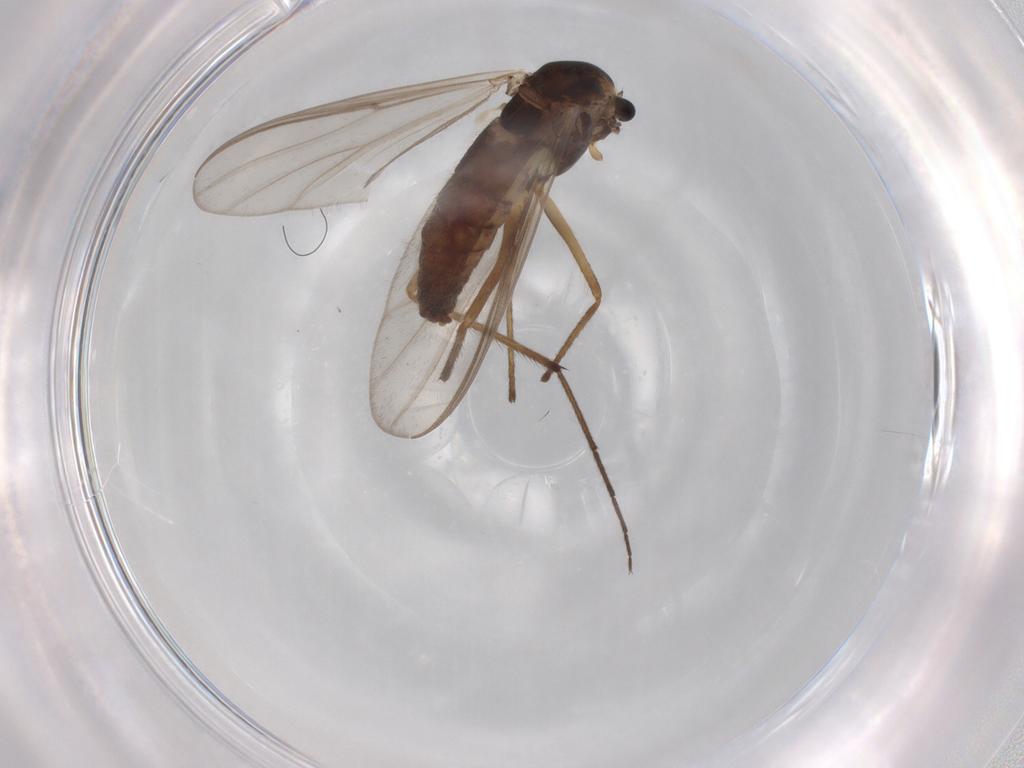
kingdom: Animalia
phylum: Arthropoda
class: Insecta
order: Diptera
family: Chironomidae
